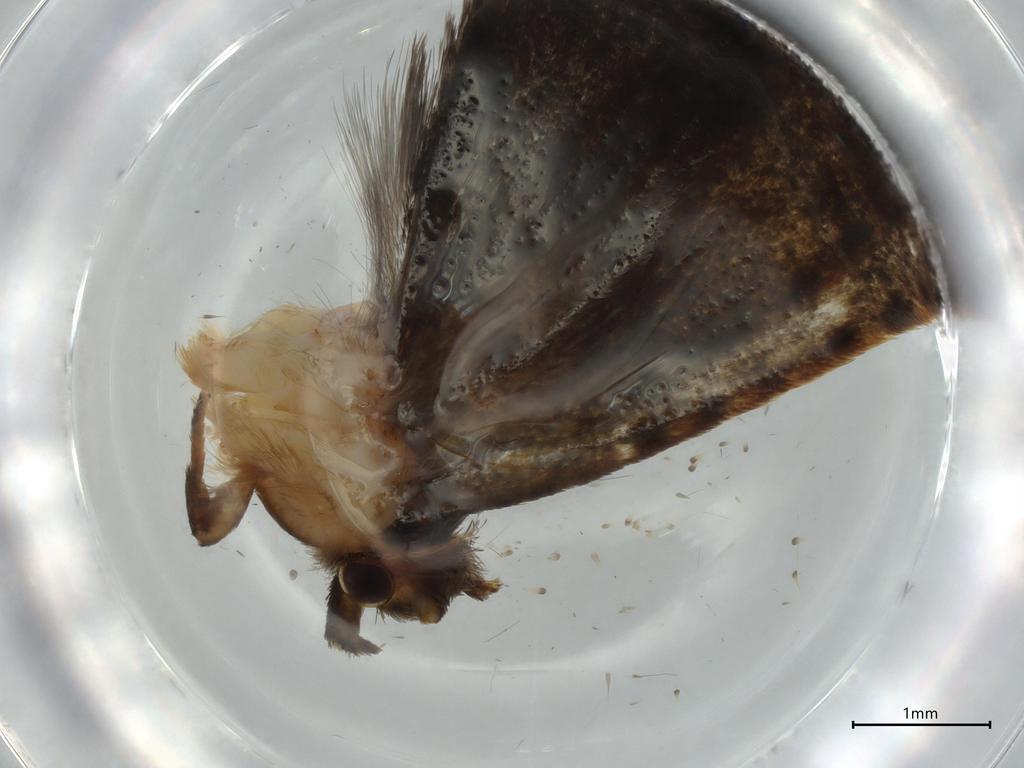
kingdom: Animalia
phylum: Arthropoda
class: Insecta
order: Lepidoptera
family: Tineidae
